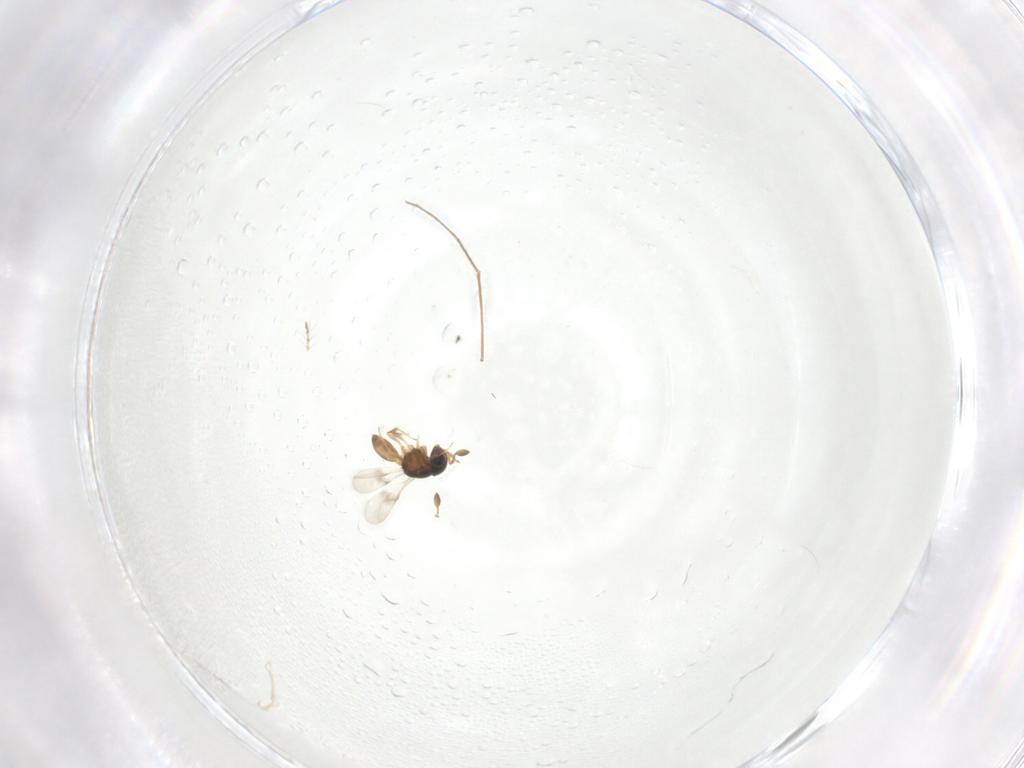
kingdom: Animalia
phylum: Arthropoda
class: Insecta
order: Hymenoptera
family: Scelionidae
